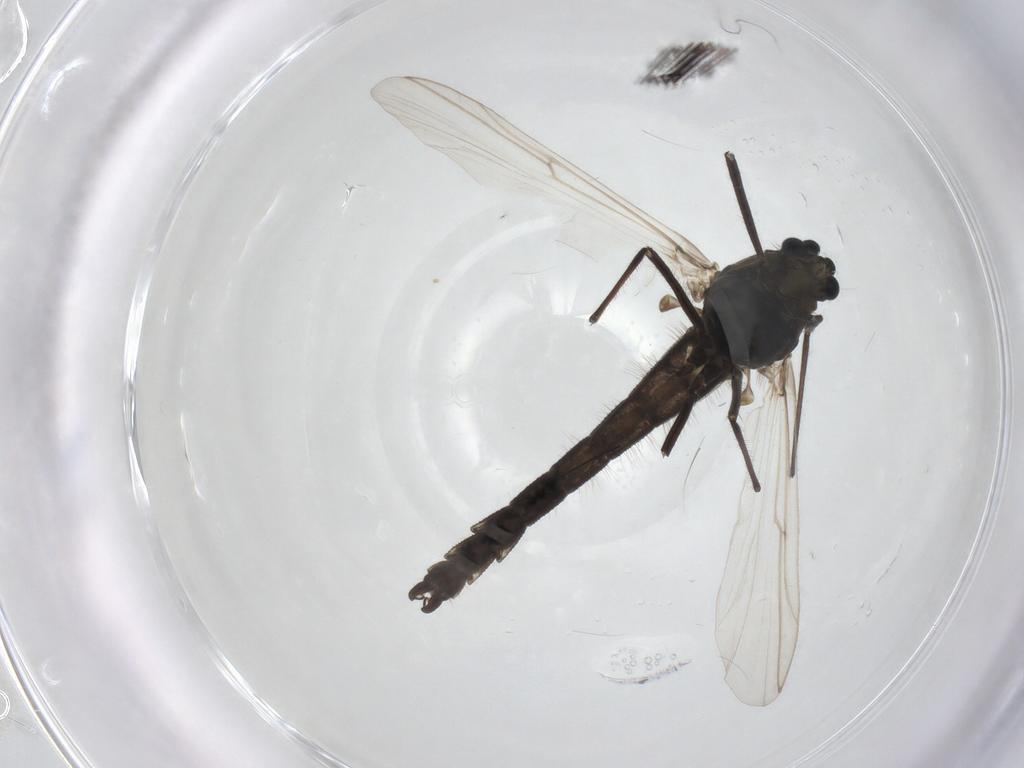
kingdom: Animalia
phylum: Arthropoda
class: Insecta
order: Diptera
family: Chironomidae
